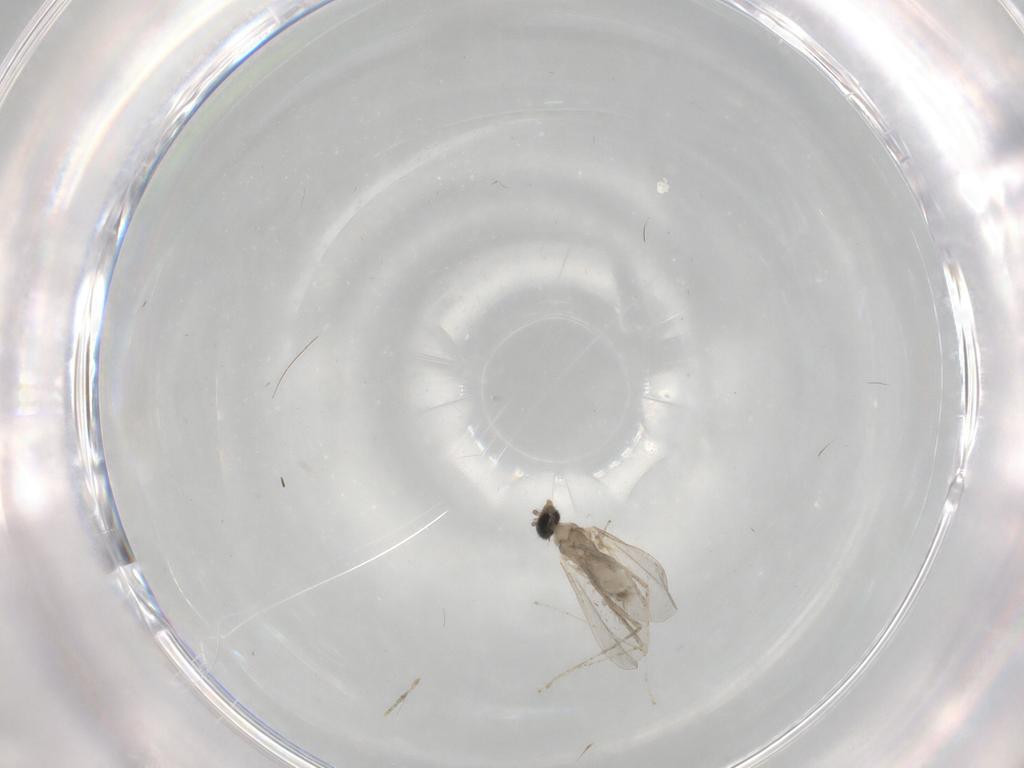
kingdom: Animalia
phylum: Arthropoda
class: Insecta
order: Diptera
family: Cecidomyiidae
